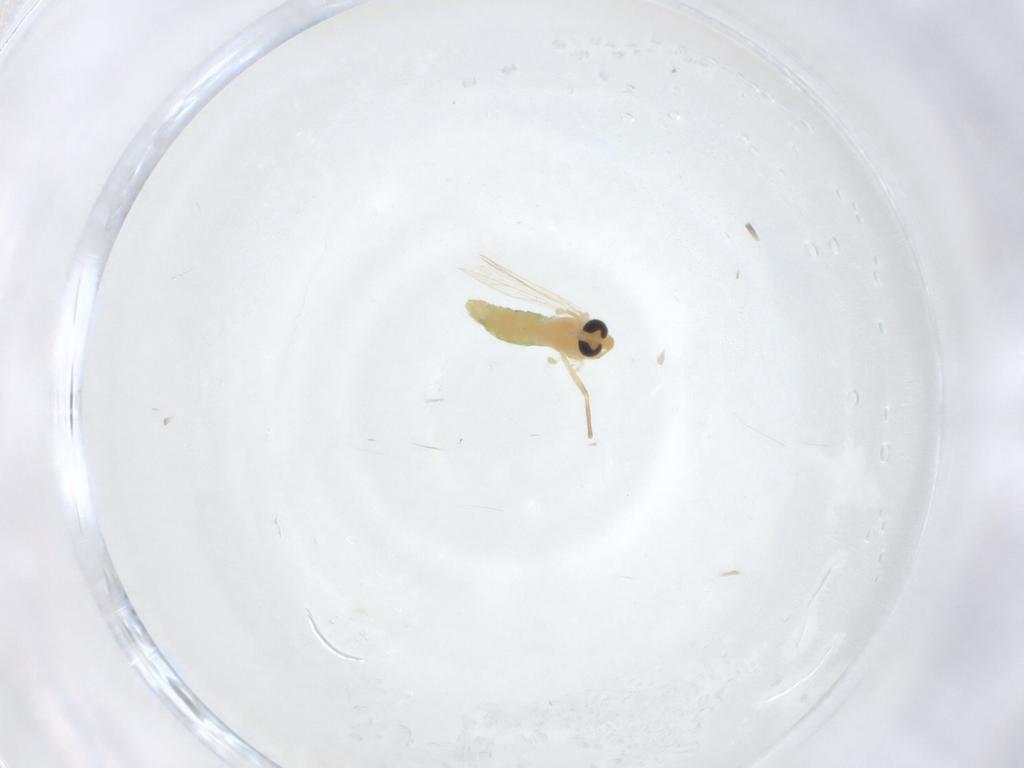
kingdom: Animalia
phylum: Arthropoda
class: Insecta
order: Diptera
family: Chironomidae
